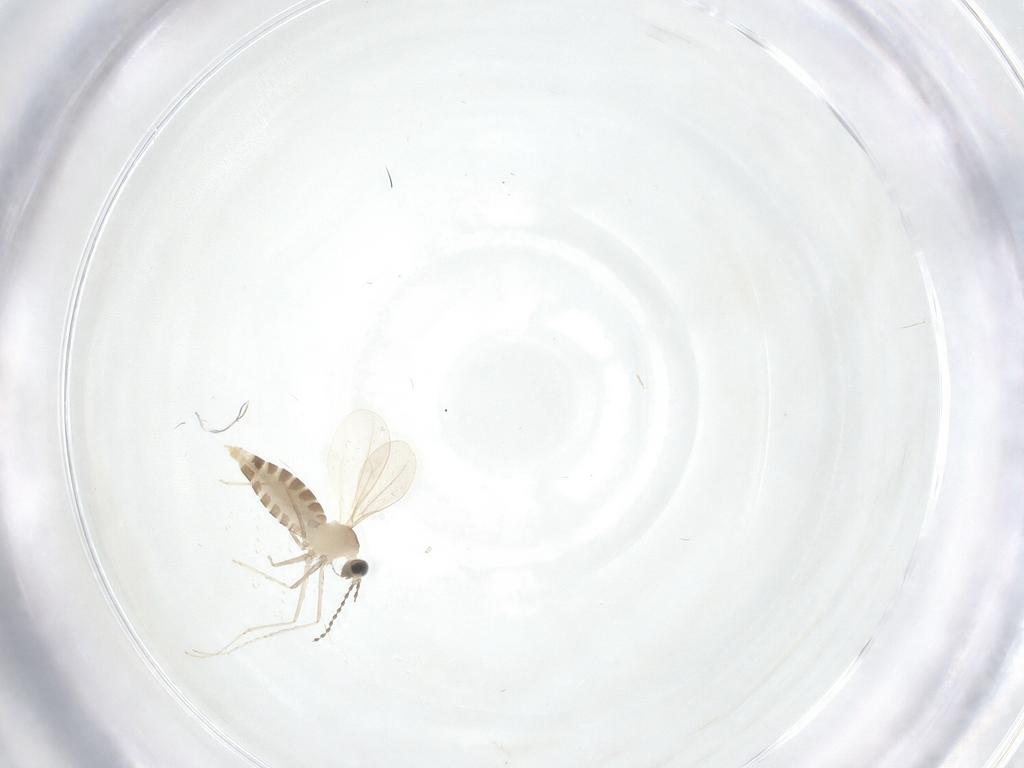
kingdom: Animalia
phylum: Arthropoda
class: Insecta
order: Diptera
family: Cecidomyiidae
